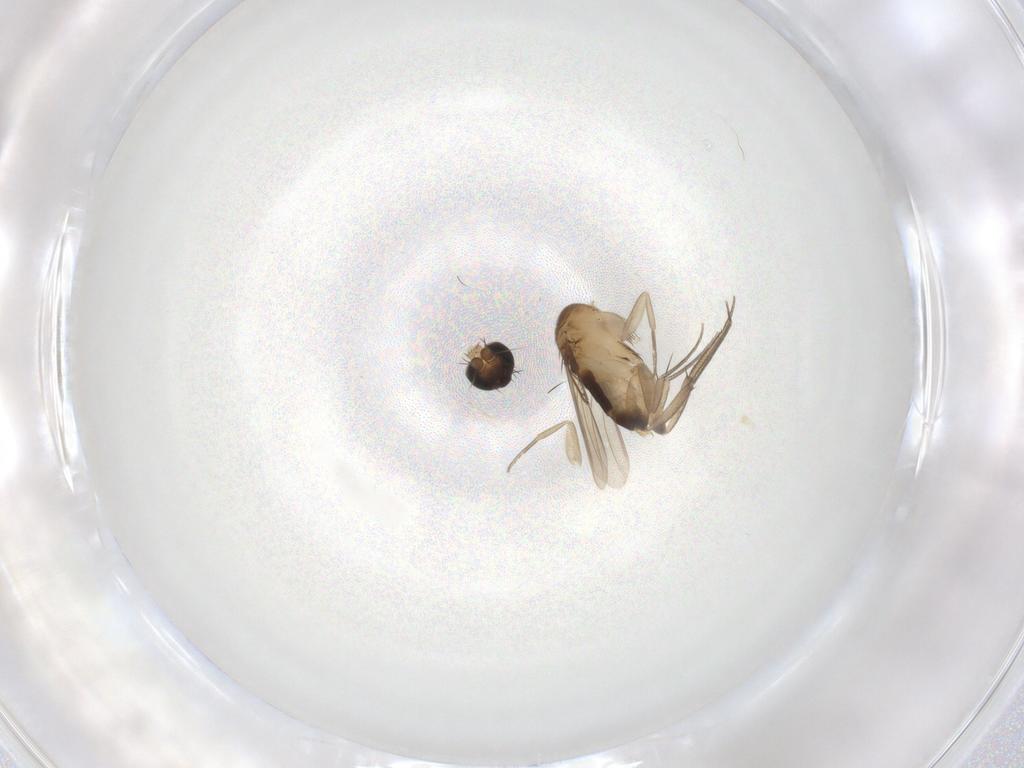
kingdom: Animalia
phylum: Arthropoda
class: Insecta
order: Diptera
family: Phoridae
